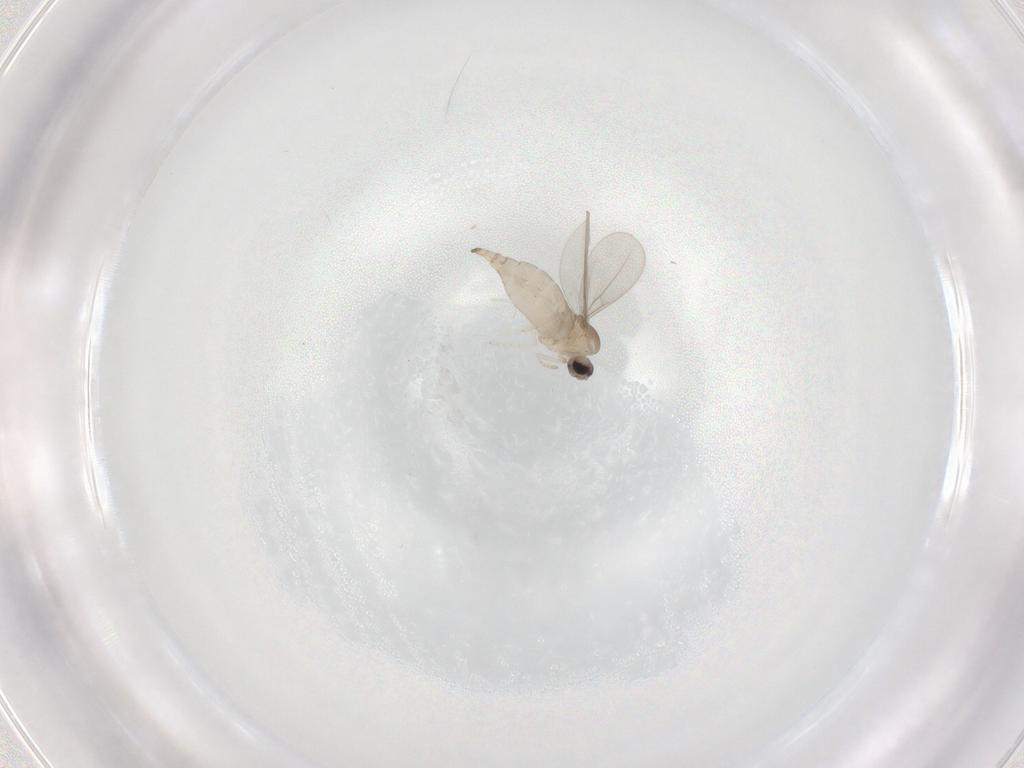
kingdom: Animalia
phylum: Arthropoda
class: Insecta
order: Diptera
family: Cecidomyiidae
